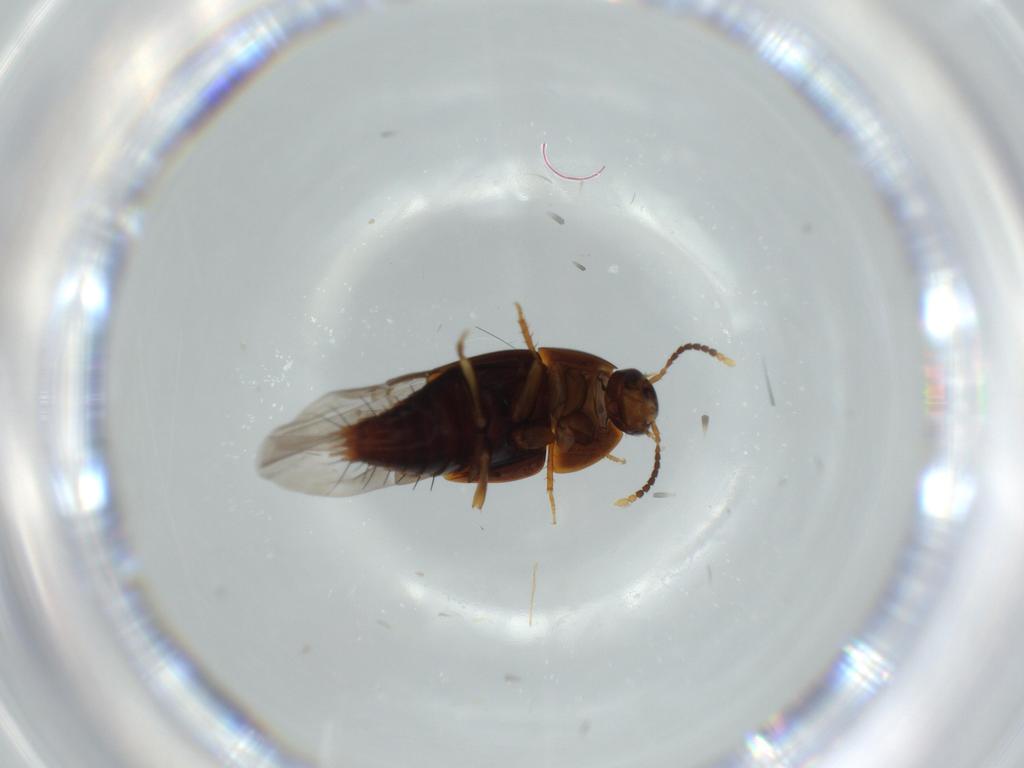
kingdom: Animalia
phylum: Arthropoda
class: Insecta
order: Coleoptera
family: Staphylinidae
